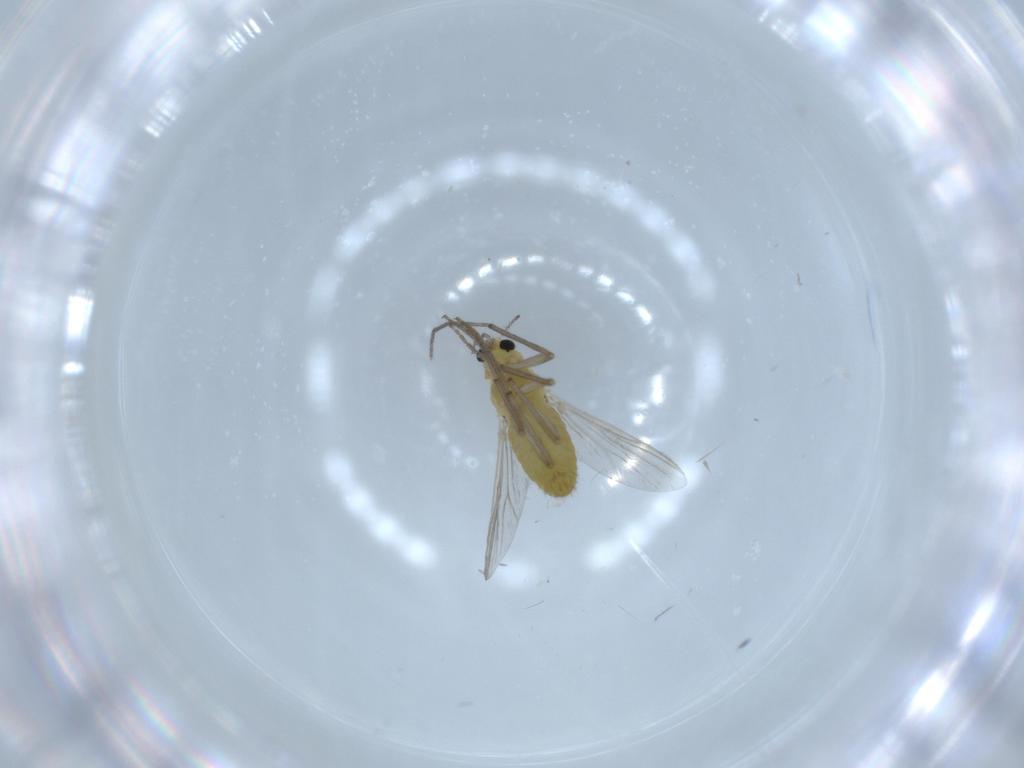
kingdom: Animalia
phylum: Arthropoda
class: Insecta
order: Diptera
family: Chironomidae
